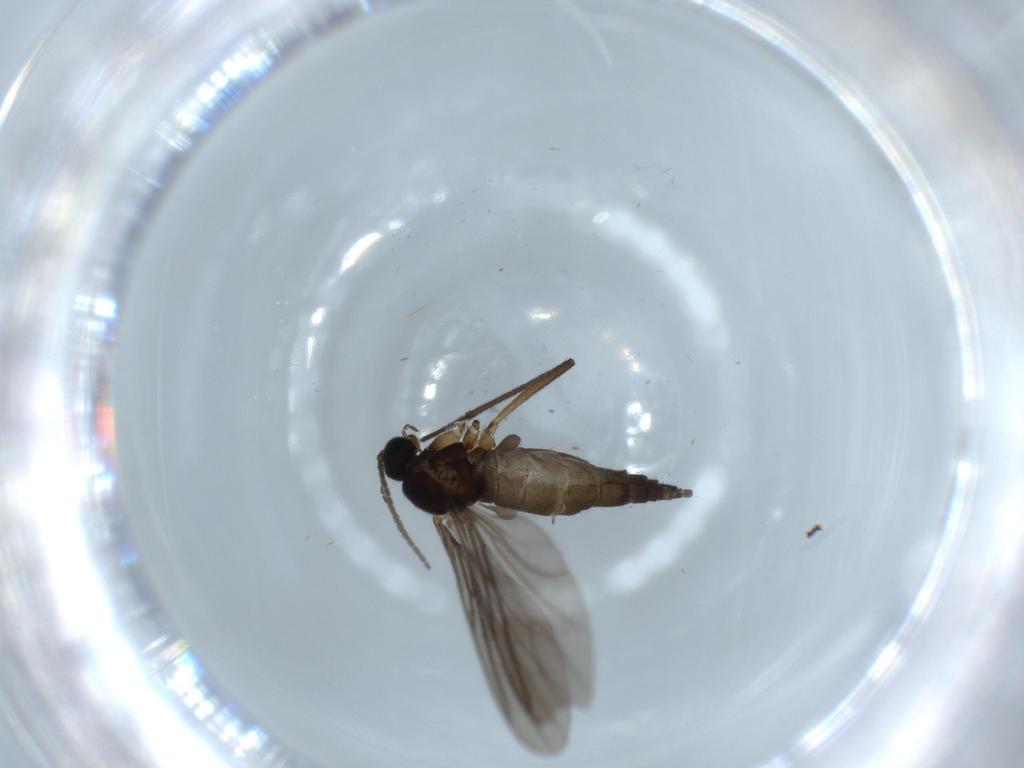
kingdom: Animalia
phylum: Arthropoda
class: Insecta
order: Diptera
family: Sciaridae
